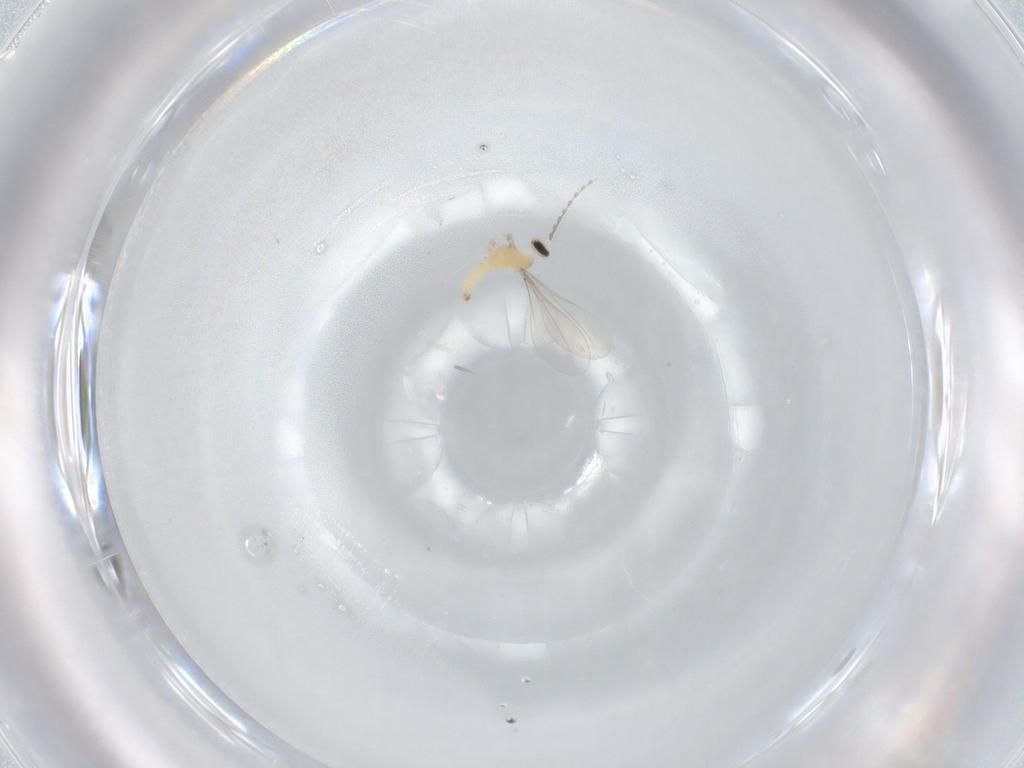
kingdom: Animalia
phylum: Arthropoda
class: Insecta
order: Diptera
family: Cecidomyiidae
